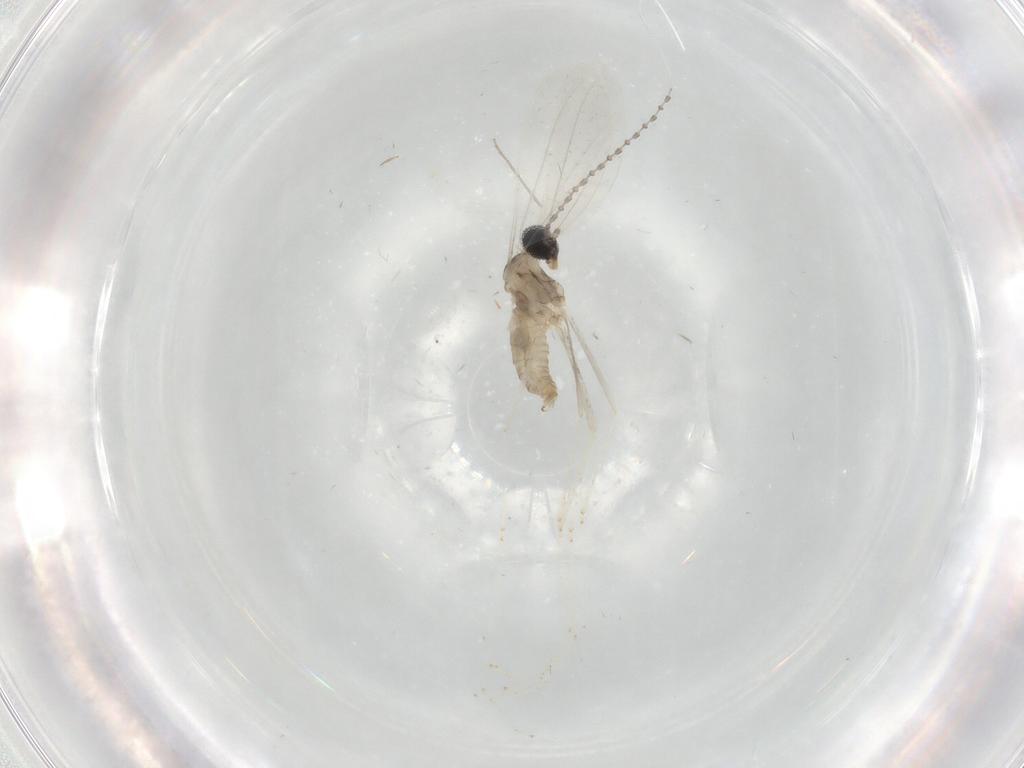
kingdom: Animalia
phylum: Arthropoda
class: Insecta
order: Diptera
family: Cecidomyiidae
